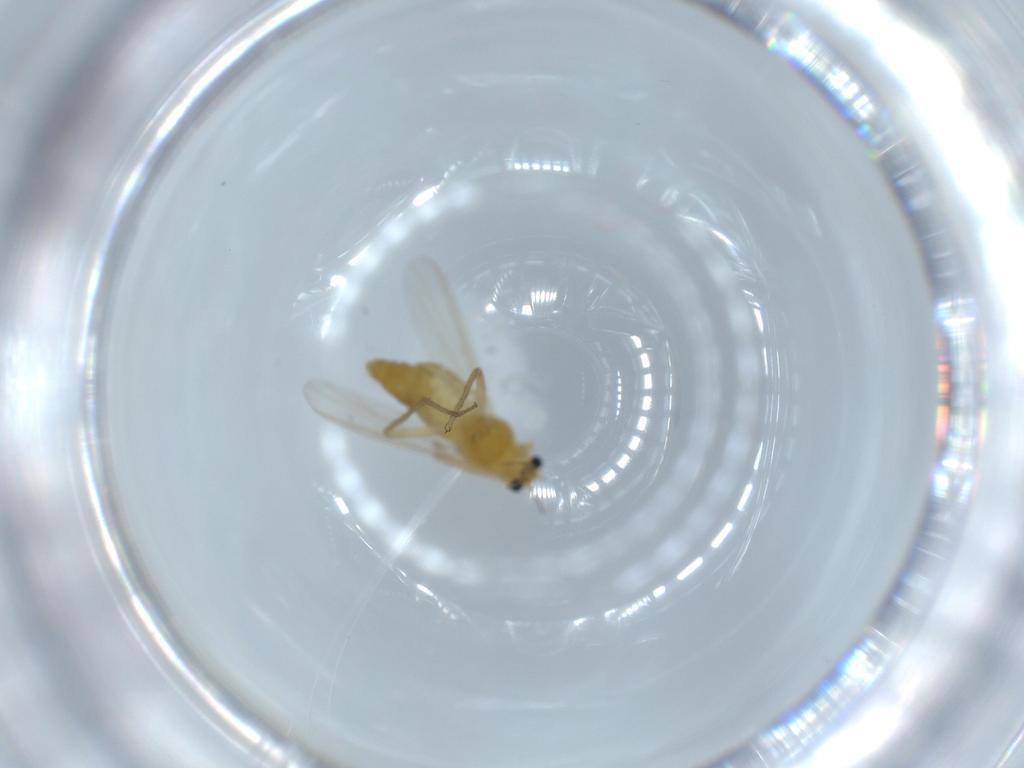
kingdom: Animalia
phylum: Arthropoda
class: Insecta
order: Diptera
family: Chironomidae
